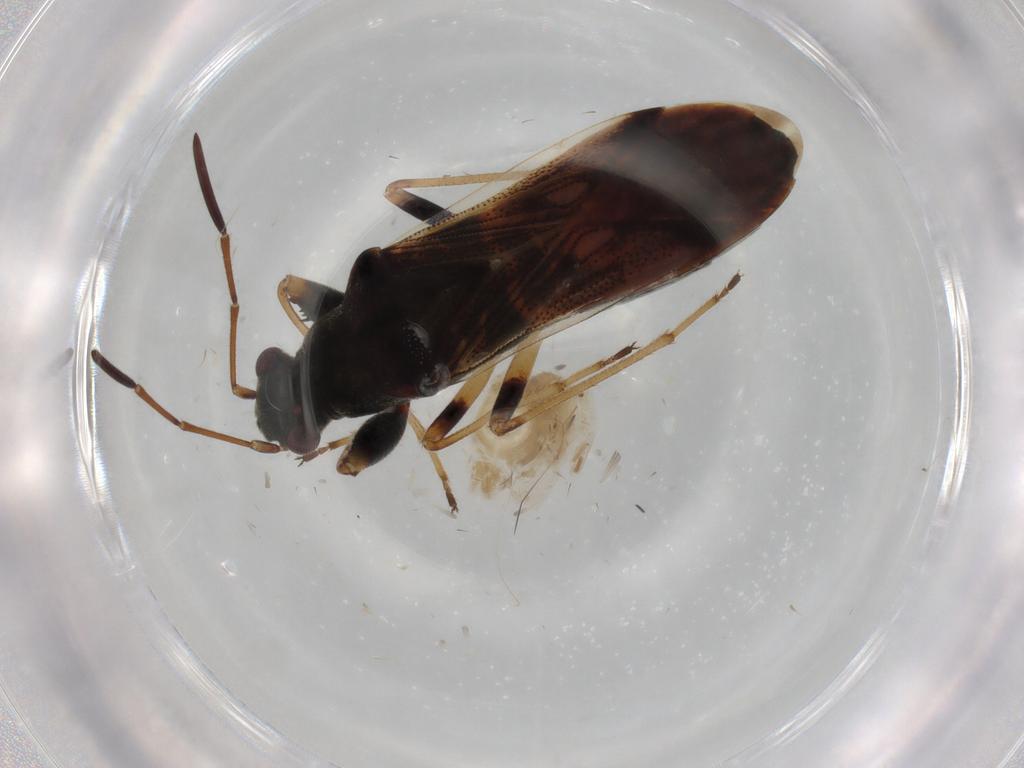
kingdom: Animalia
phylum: Arthropoda
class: Insecta
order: Hemiptera
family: Rhyparochromidae
